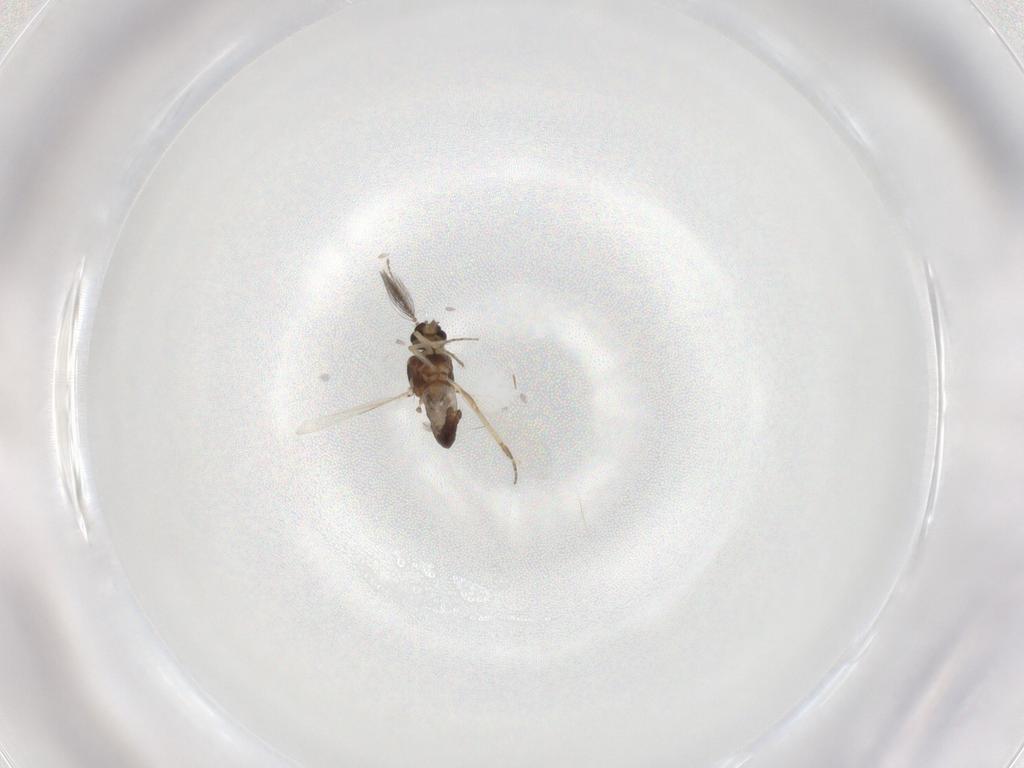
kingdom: Animalia
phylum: Arthropoda
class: Insecta
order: Diptera
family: Ceratopogonidae
